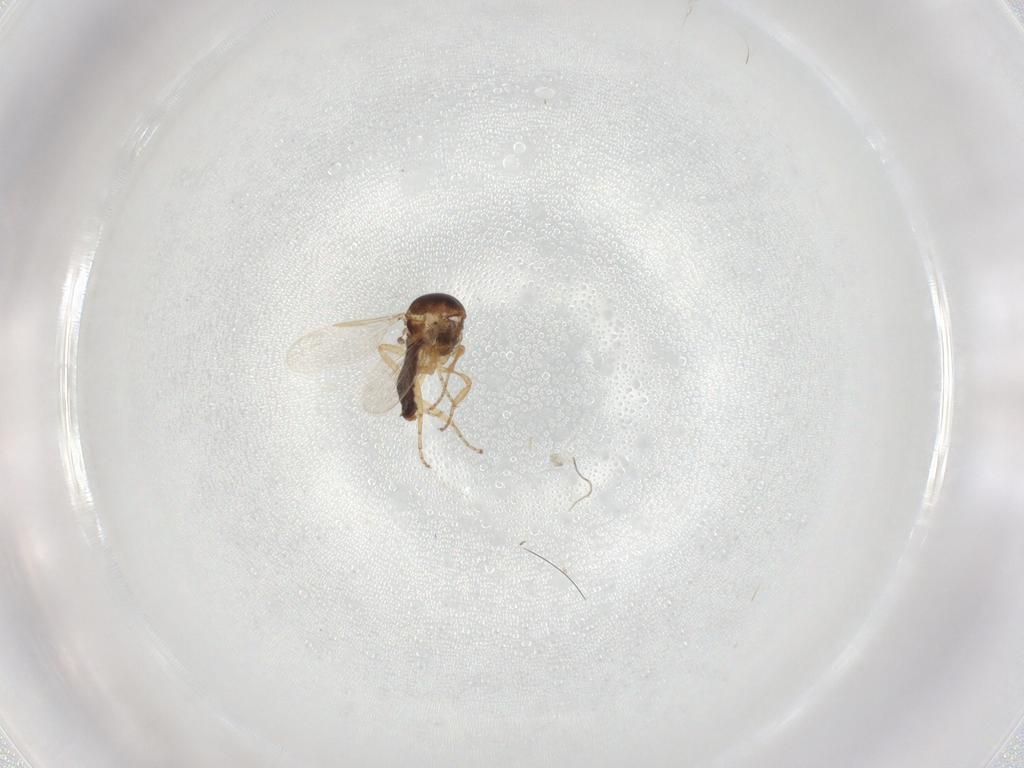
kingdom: Animalia
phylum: Arthropoda
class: Insecta
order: Diptera
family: Ceratopogonidae
